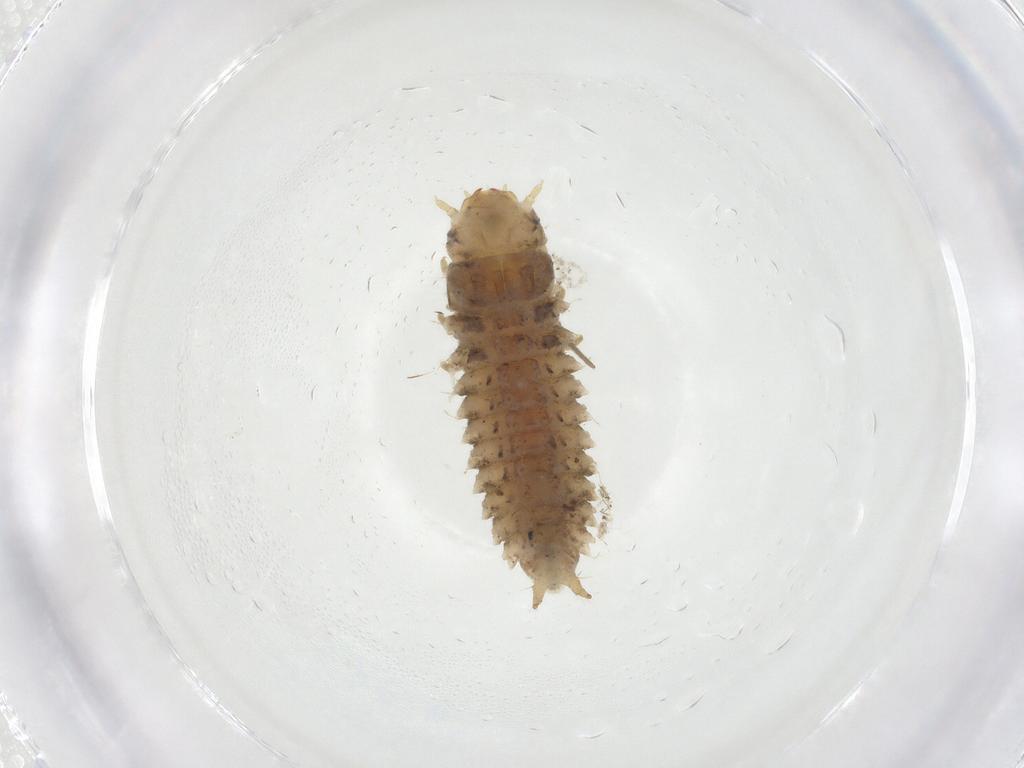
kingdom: Animalia
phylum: Arthropoda
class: Insecta
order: Coleoptera
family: Nitidulidae
